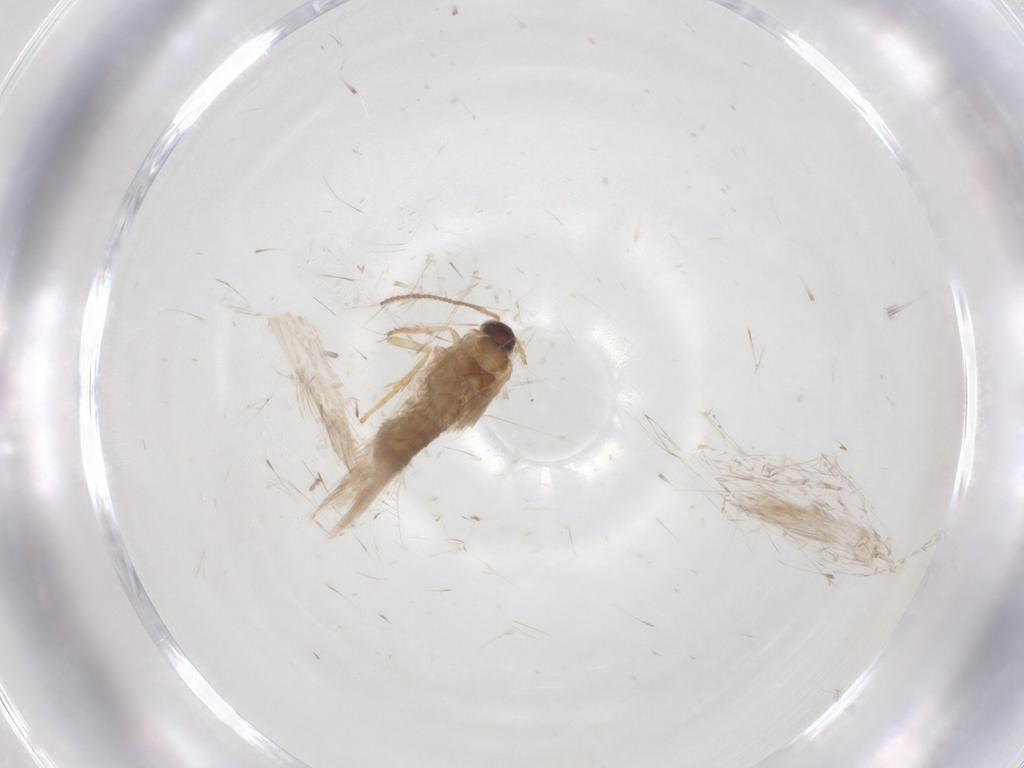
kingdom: Animalia
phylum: Arthropoda
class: Insecta
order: Lepidoptera
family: Nepticulidae
